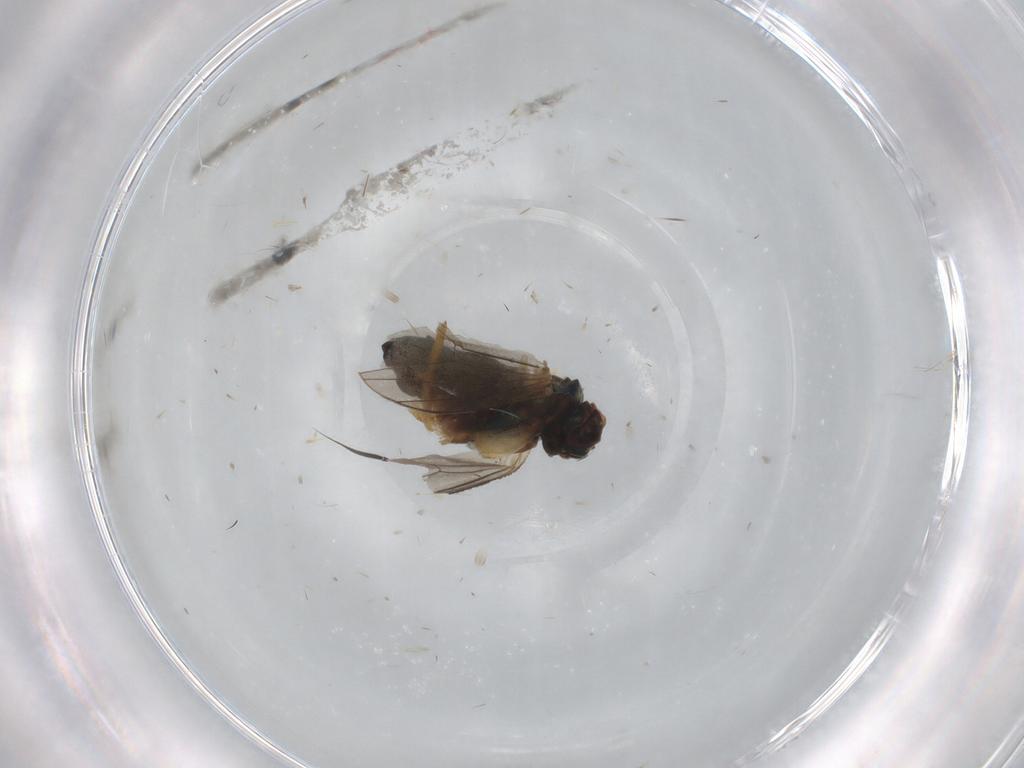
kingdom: Animalia
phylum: Arthropoda
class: Insecta
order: Diptera
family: Dolichopodidae
